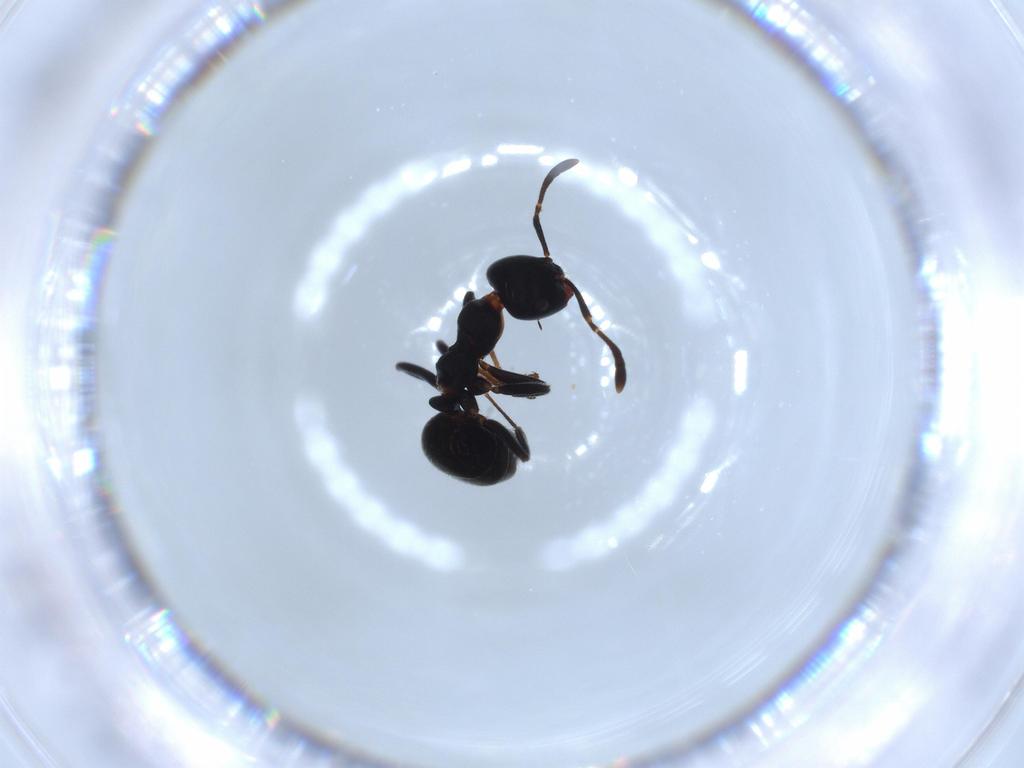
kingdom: Animalia
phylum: Arthropoda
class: Insecta
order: Hymenoptera
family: Formicidae
